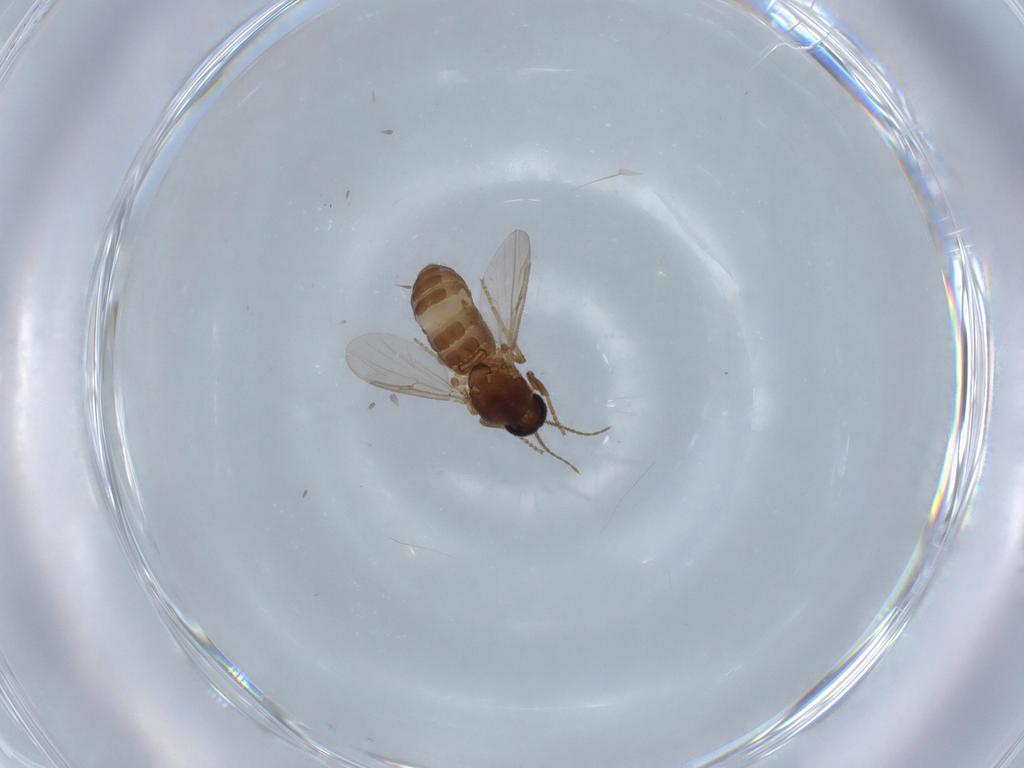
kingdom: Animalia
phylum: Arthropoda
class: Insecta
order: Diptera
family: Ceratopogonidae
